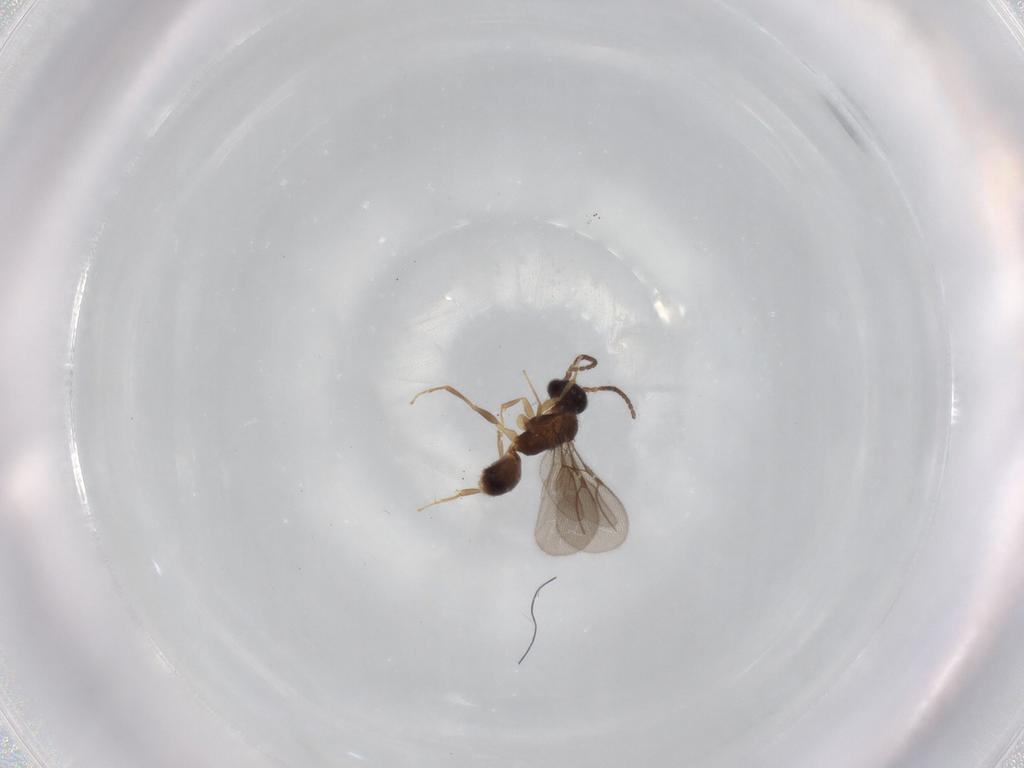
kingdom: Animalia
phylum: Arthropoda
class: Insecta
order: Hymenoptera
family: Bethylidae
